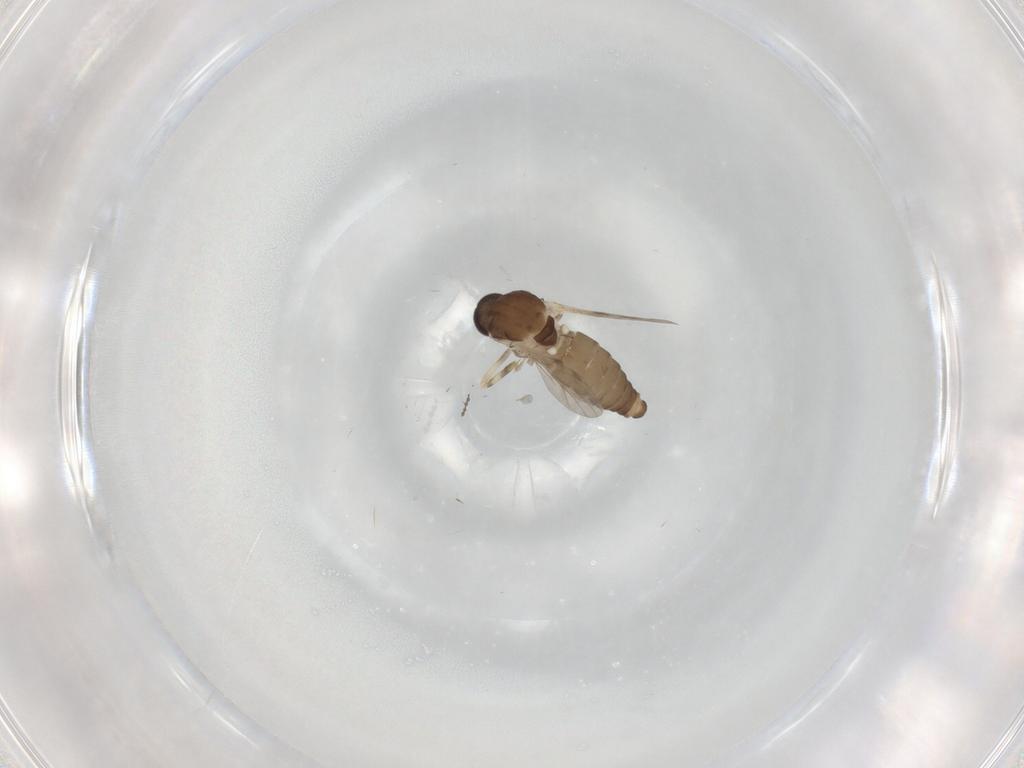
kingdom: Animalia
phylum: Arthropoda
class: Insecta
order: Diptera
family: Ceratopogonidae
